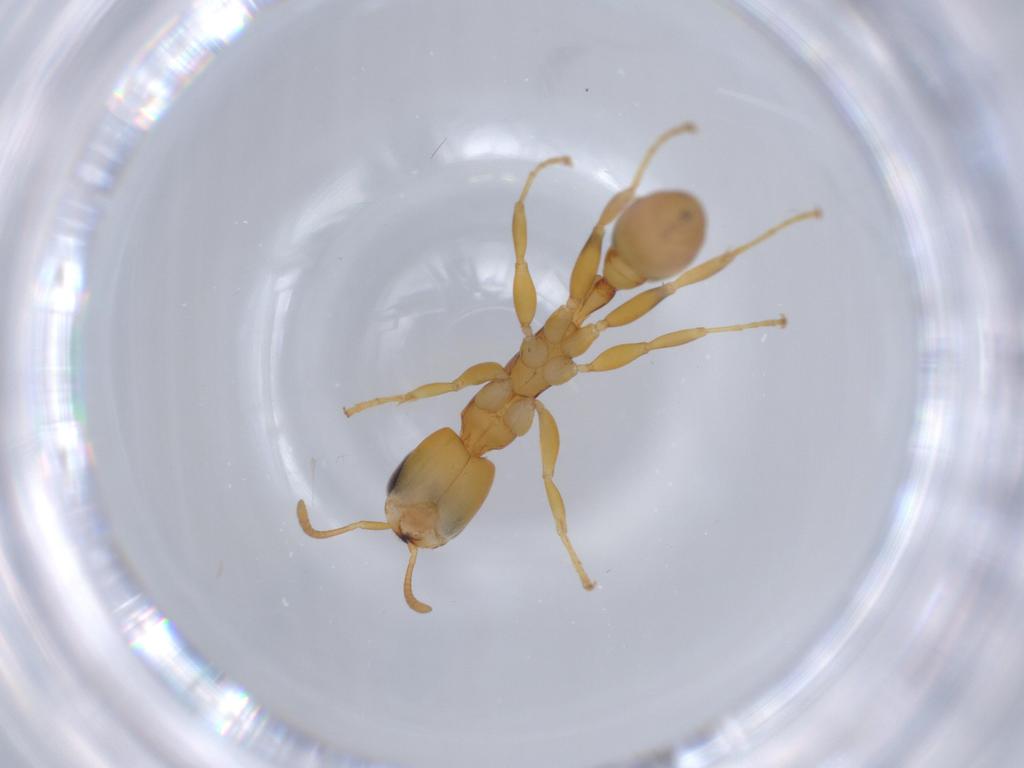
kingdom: Animalia
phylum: Arthropoda
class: Insecta
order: Hymenoptera
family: Formicidae
